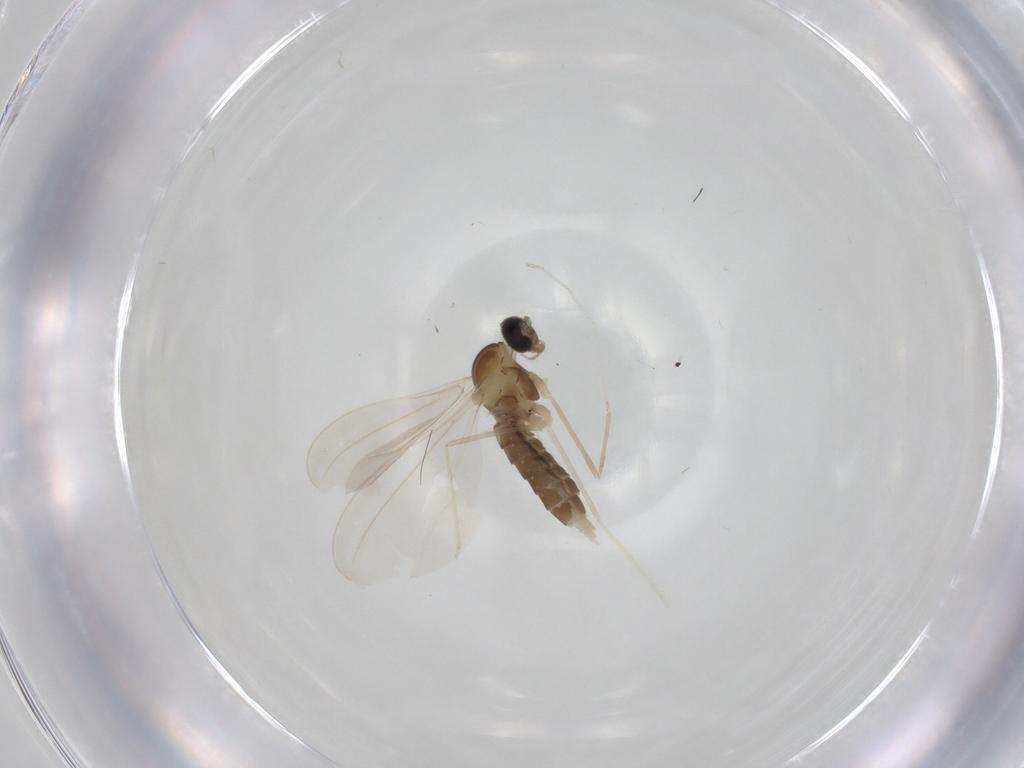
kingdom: Animalia
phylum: Arthropoda
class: Insecta
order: Diptera
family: Cecidomyiidae
